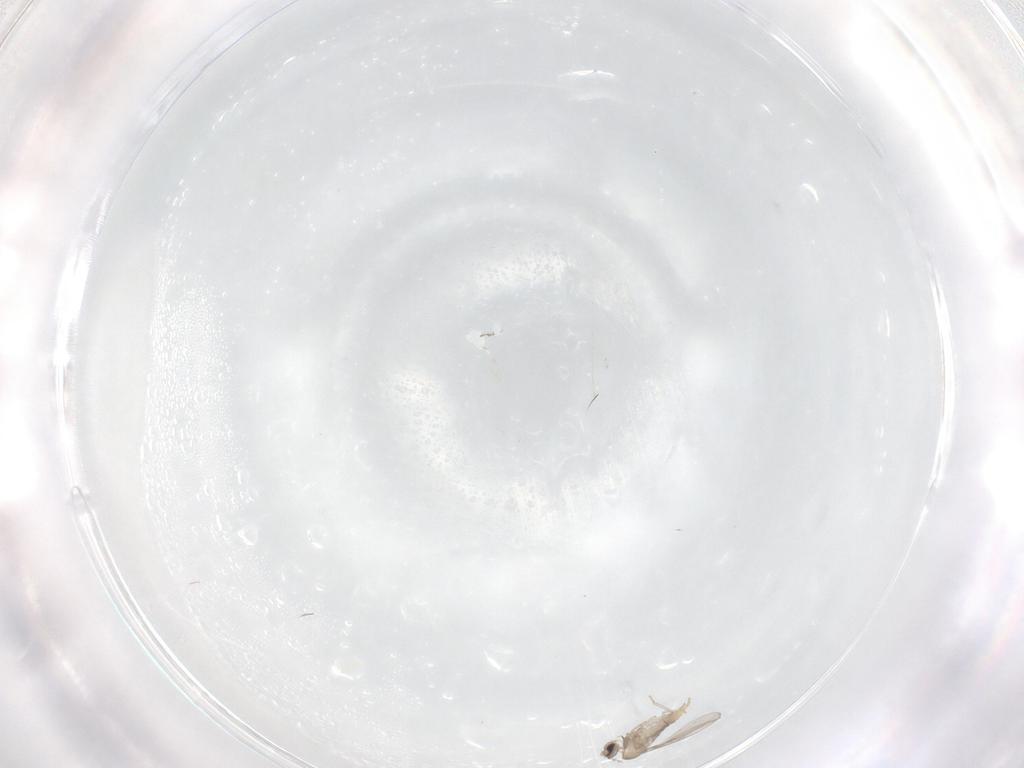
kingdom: Animalia
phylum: Arthropoda
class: Insecta
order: Diptera
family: Cecidomyiidae
